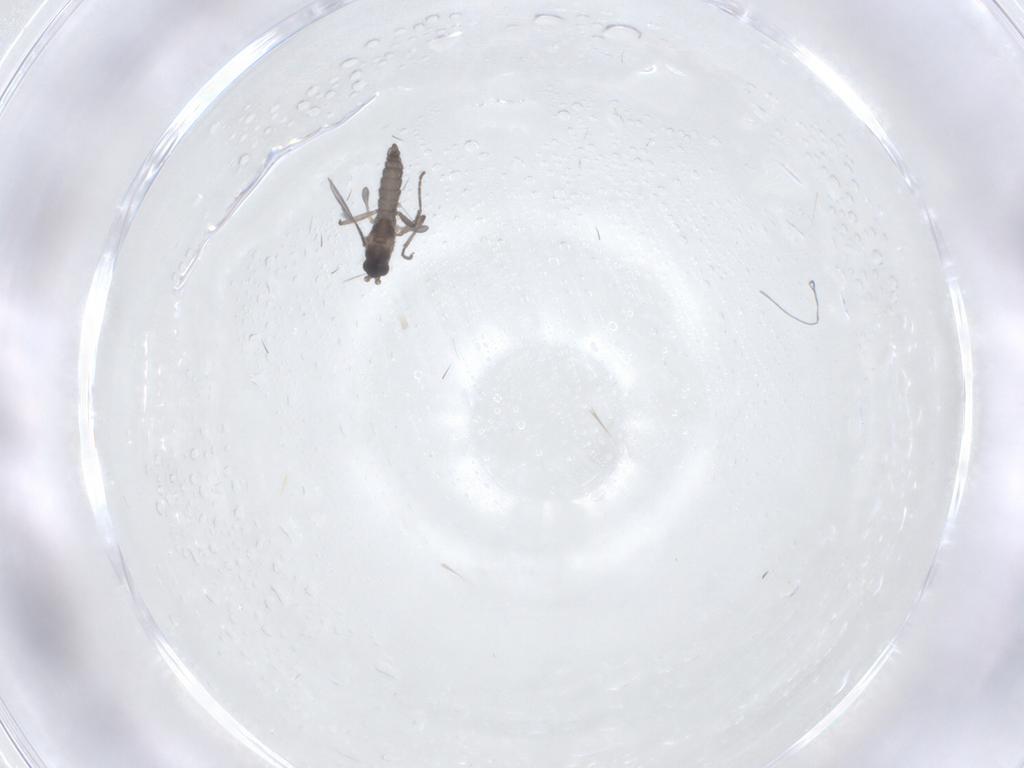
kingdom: Animalia
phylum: Arthropoda
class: Insecta
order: Diptera
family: Sciaridae
